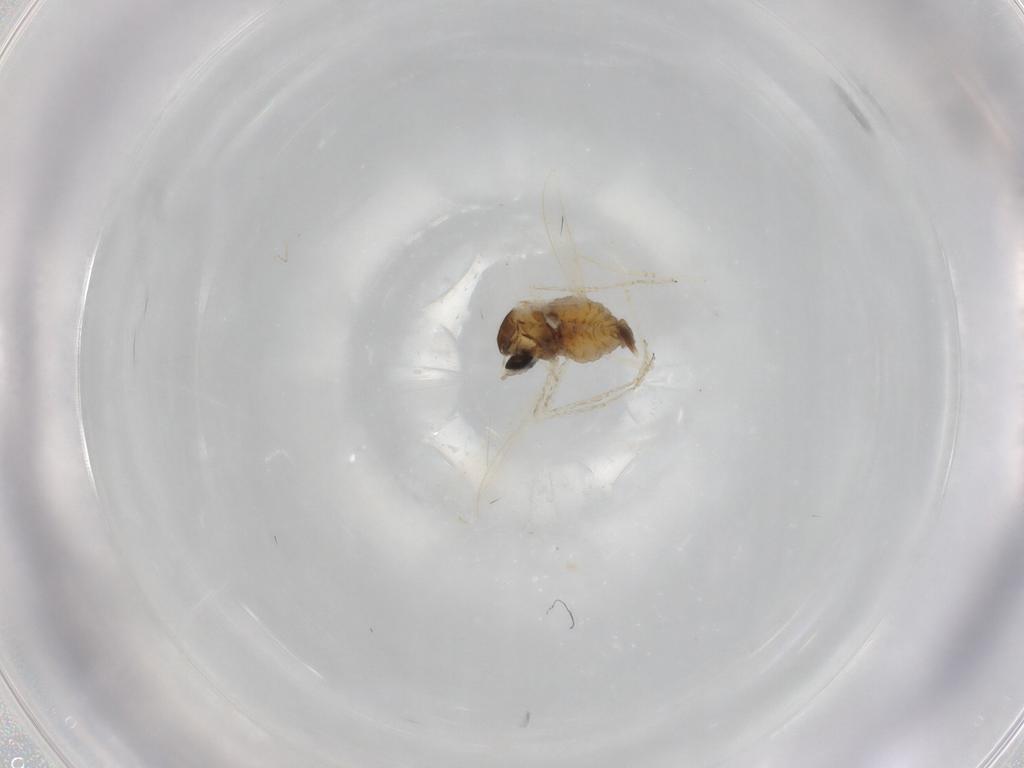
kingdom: Animalia
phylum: Arthropoda
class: Insecta
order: Diptera
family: Cecidomyiidae
